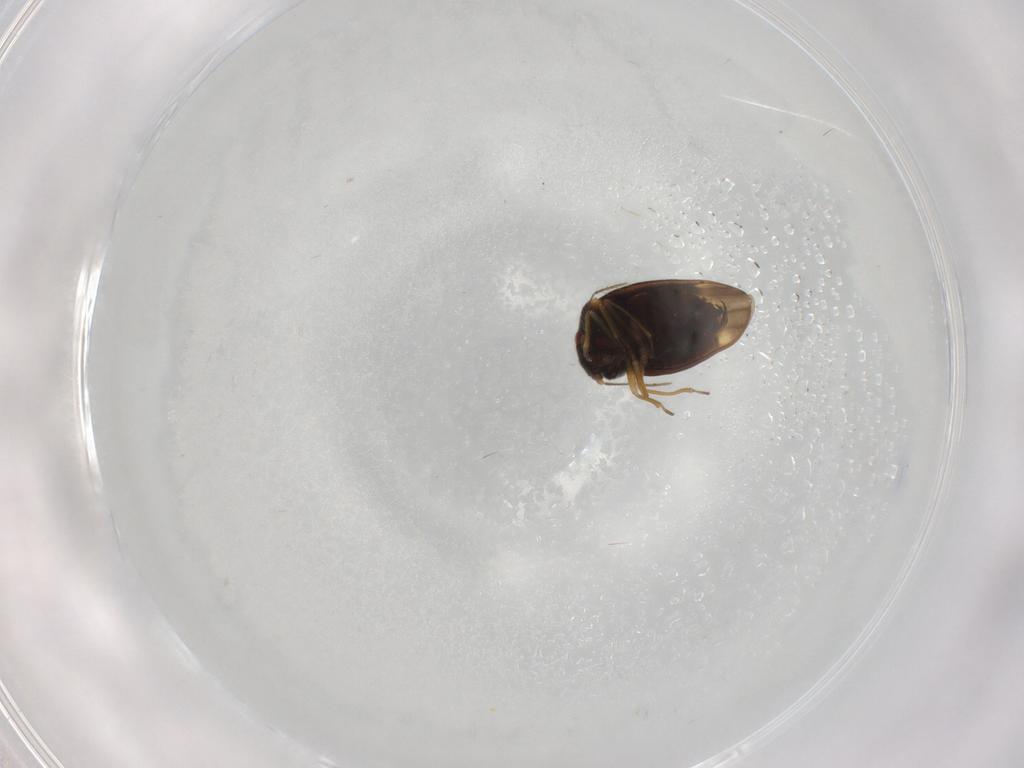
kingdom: Animalia
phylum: Arthropoda
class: Insecta
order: Hemiptera
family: Schizopteridae
